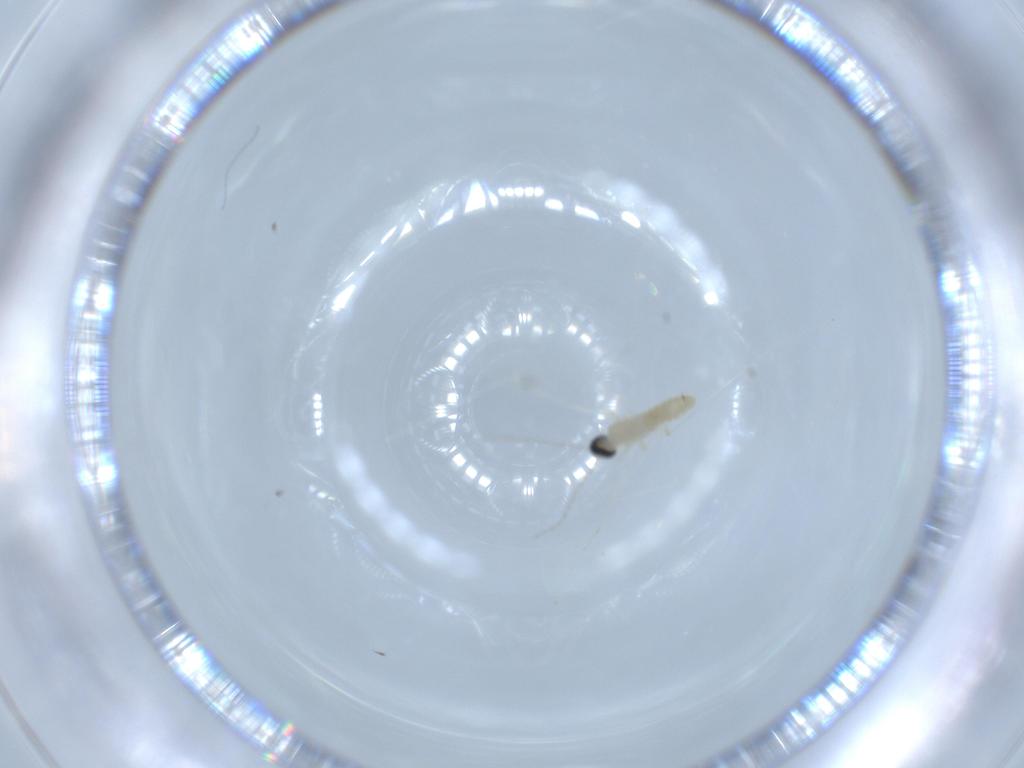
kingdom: Animalia
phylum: Arthropoda
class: Insecta
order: Diptera
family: Cecidomyiidae
